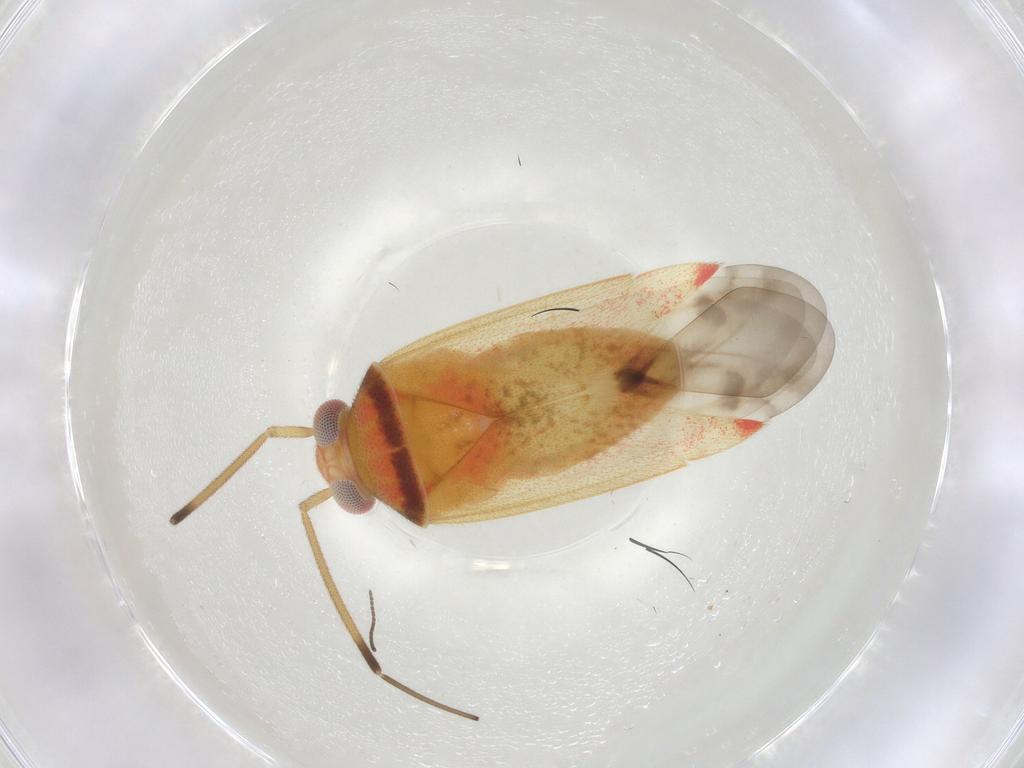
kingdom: Animalia
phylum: Arthropoda
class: Insecta
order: Hemiptera
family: Miridae
